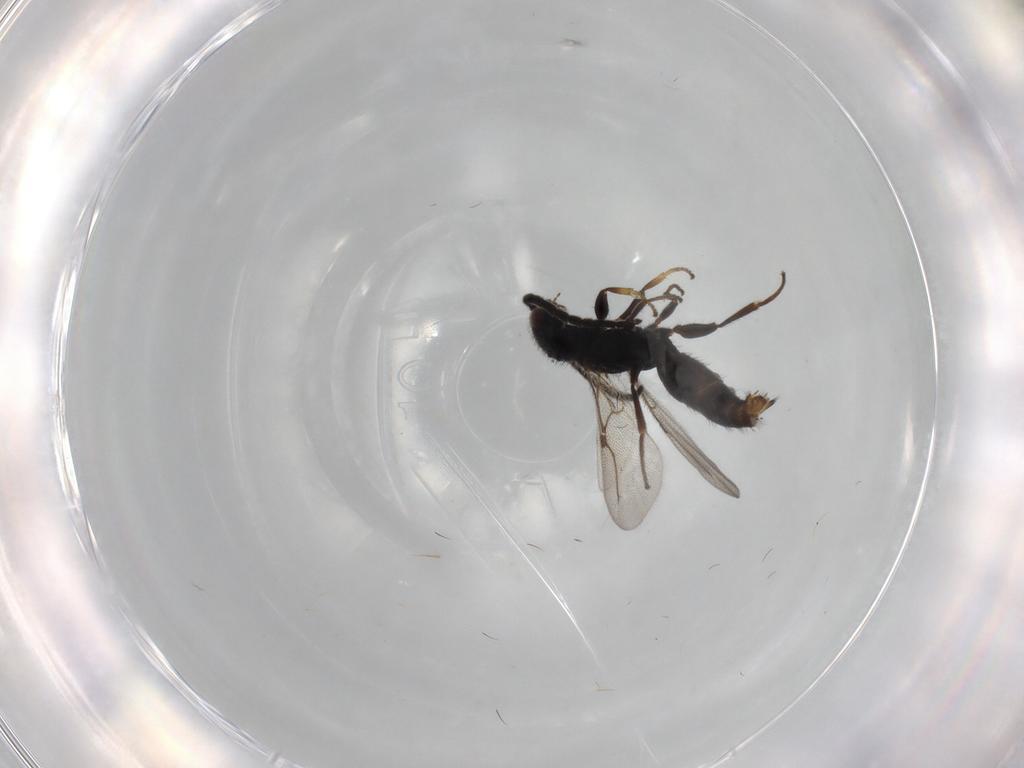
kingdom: Animalia
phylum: Arthropoda
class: Insecta
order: Hymenoptera
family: Bethylidae
